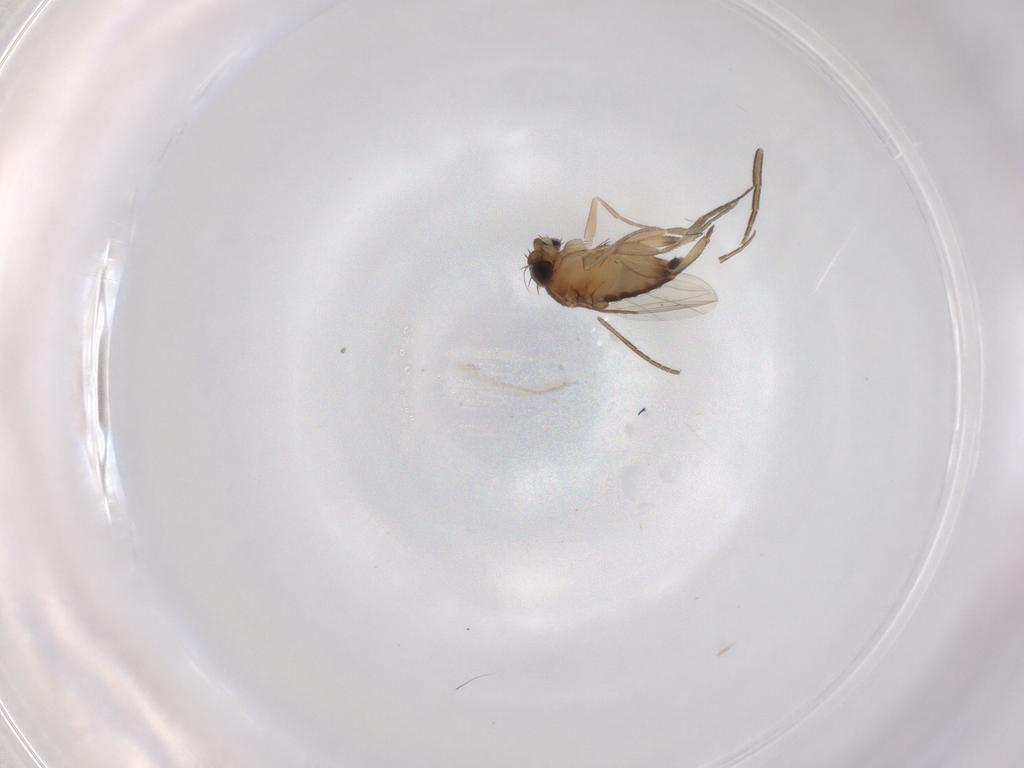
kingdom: Animalia
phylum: Arthropoda
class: Insecta
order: Diptera
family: Phoridae
